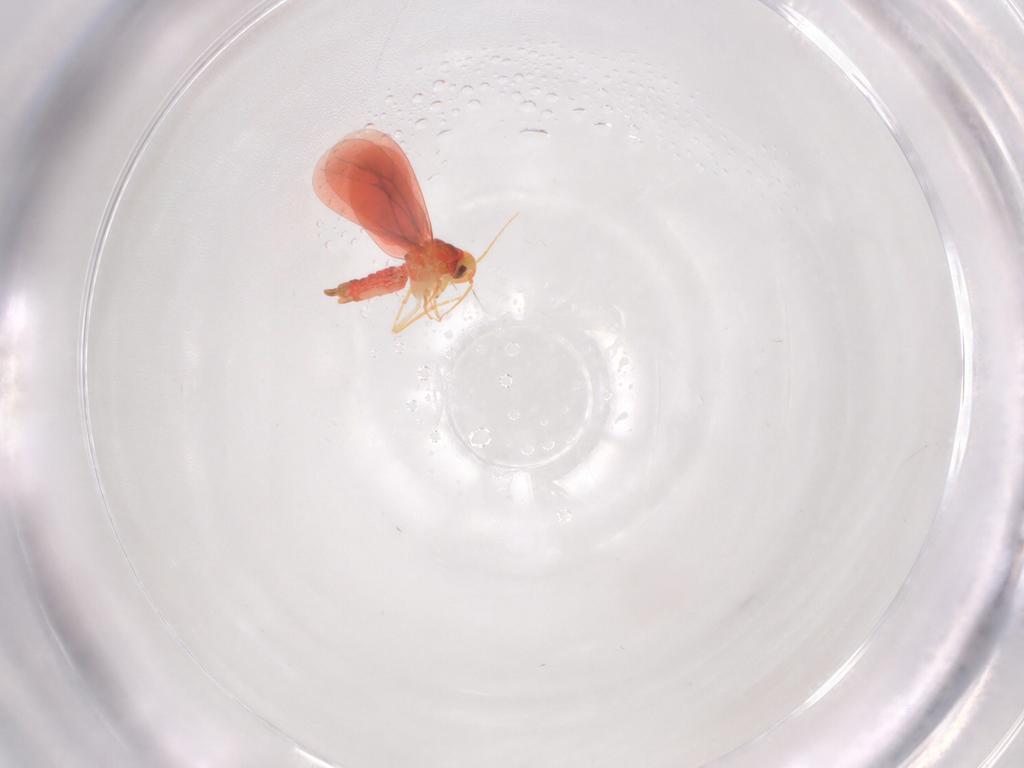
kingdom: Animalia
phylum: Arthropoda
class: Insecta
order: Hemiptera
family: Aleyrodidae
